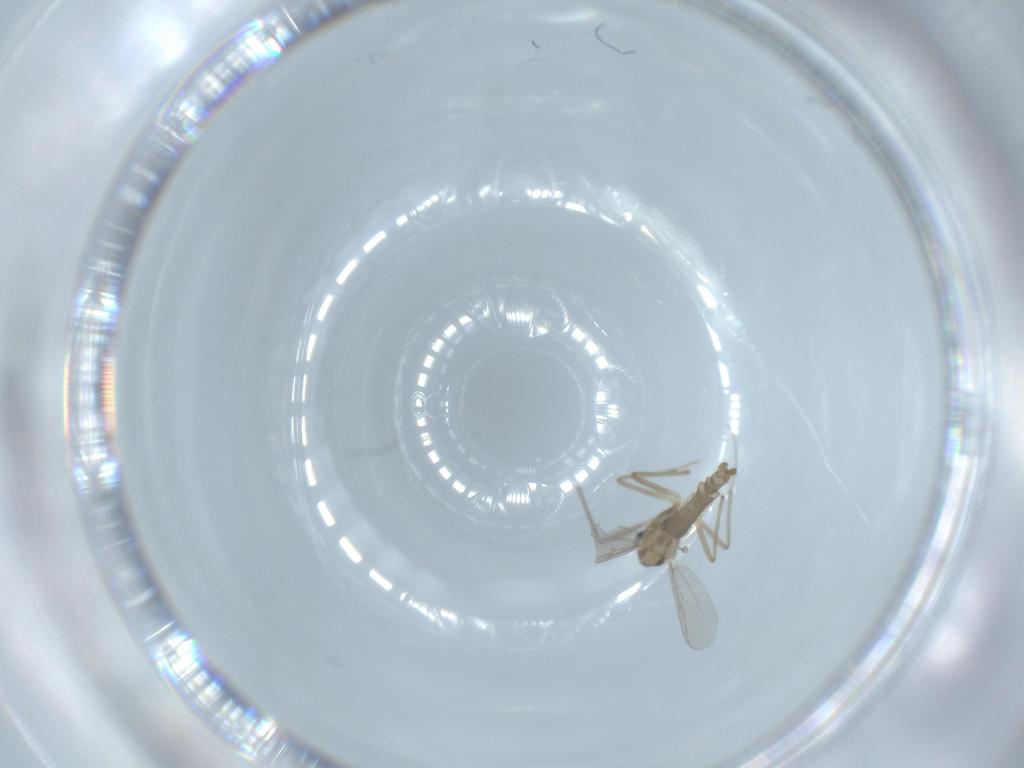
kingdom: Animalia
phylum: Arthropoda
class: Insecta
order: Diptera
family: Chironomidae
